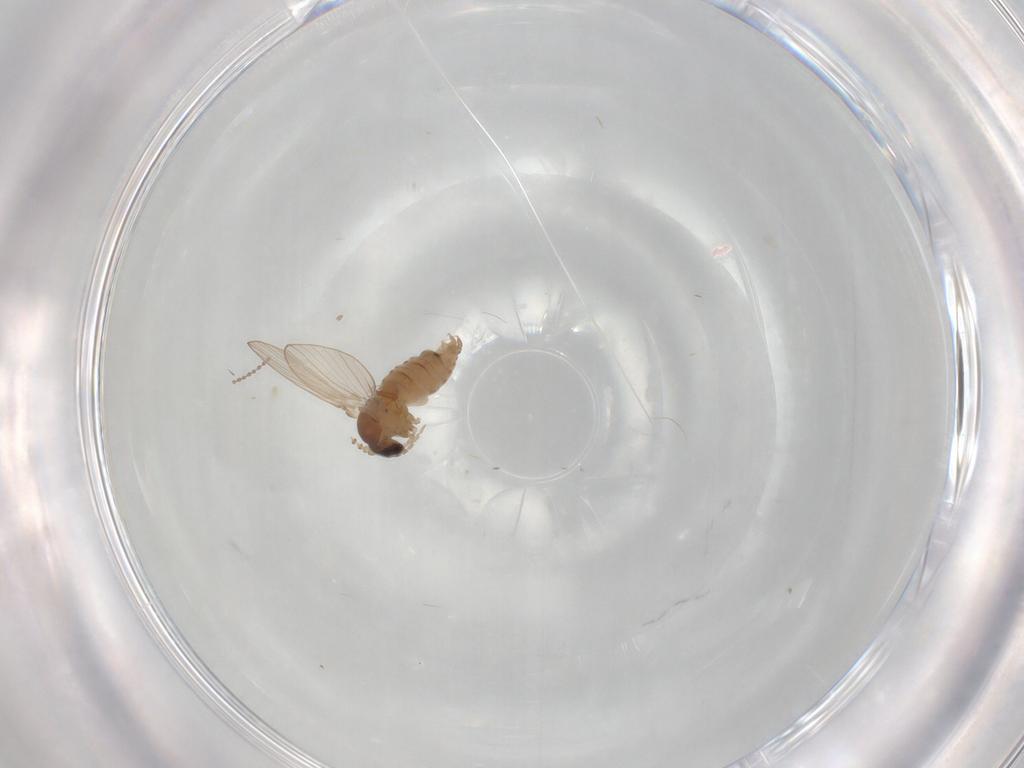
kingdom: Animalia
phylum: Arthropoda
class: Insecta
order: Diptera
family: Psychodidae
